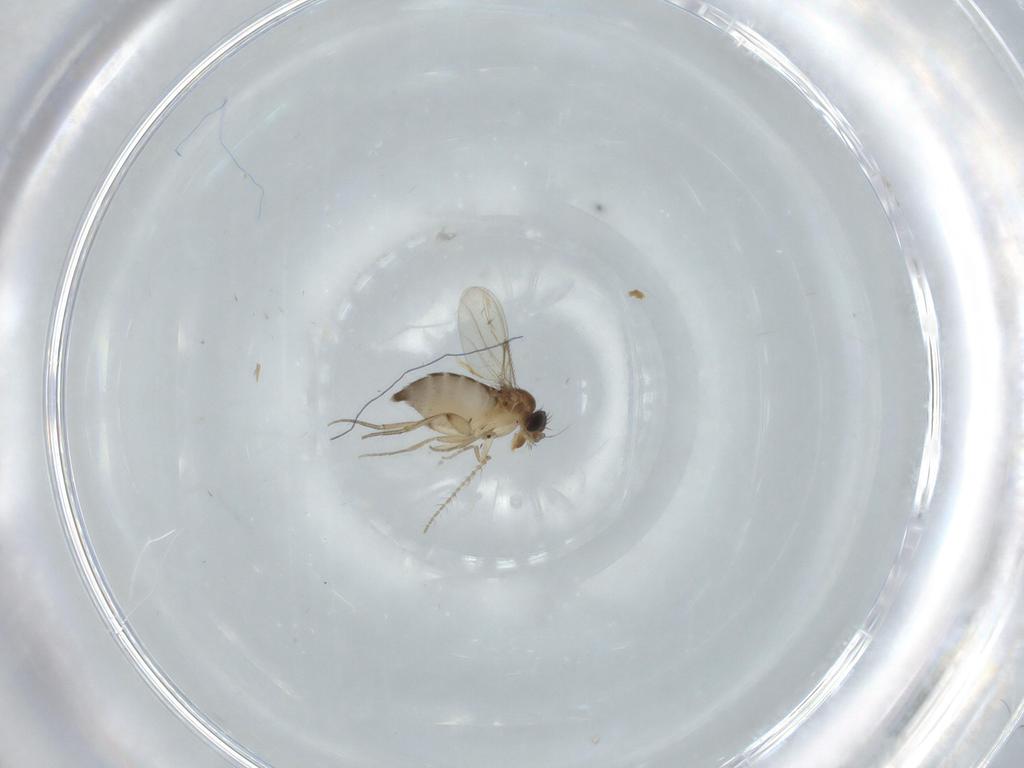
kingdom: Animalia
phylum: Arthropoda
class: Insecta
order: Diptera
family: Chironomidae
